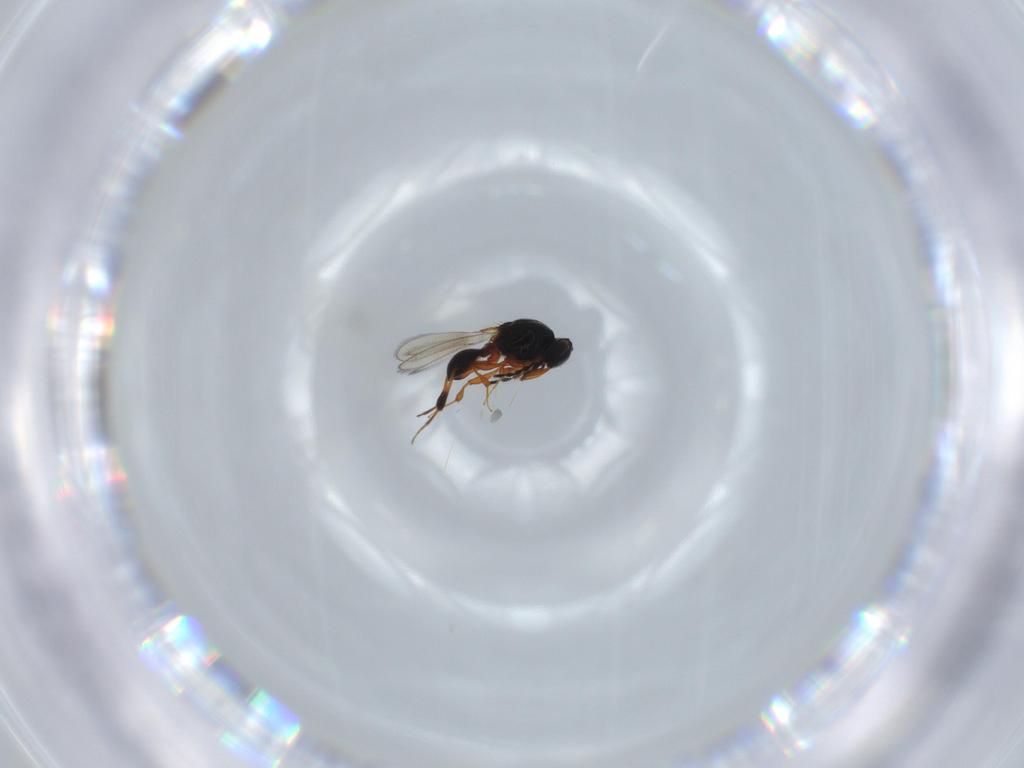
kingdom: Animalia
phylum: Arthropoda
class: Insecta
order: Hymenoptera
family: Platygastridae
